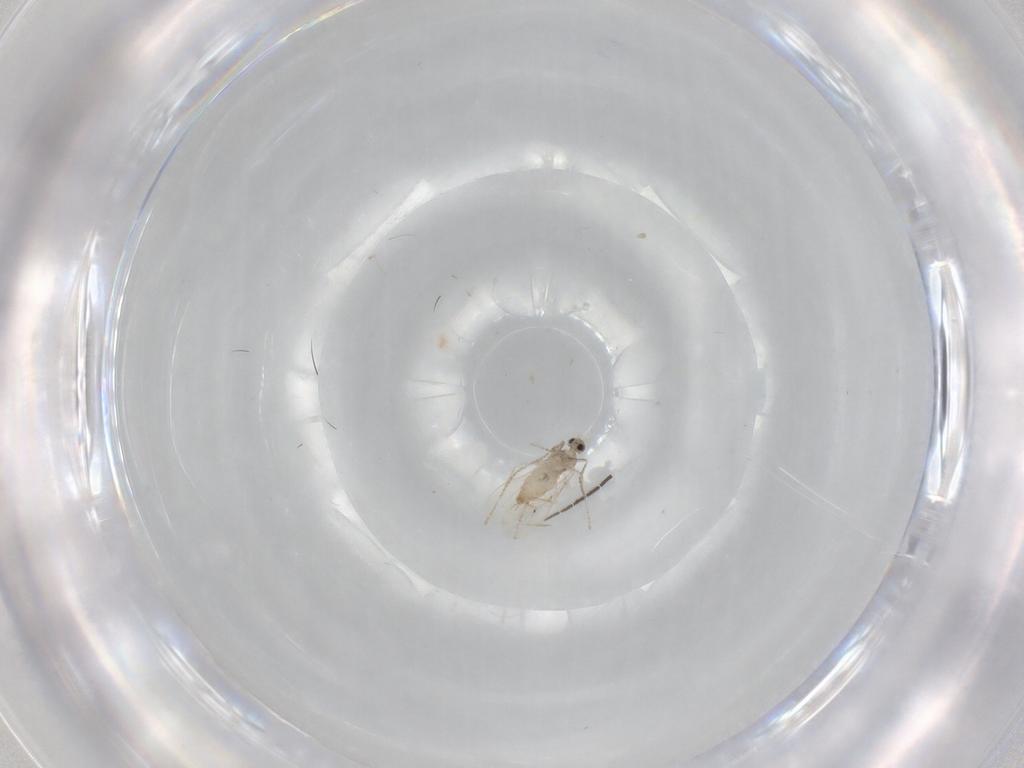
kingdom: Animalia
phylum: Arthropoda
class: Insecta
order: Diptera
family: Cecidomyiidae
